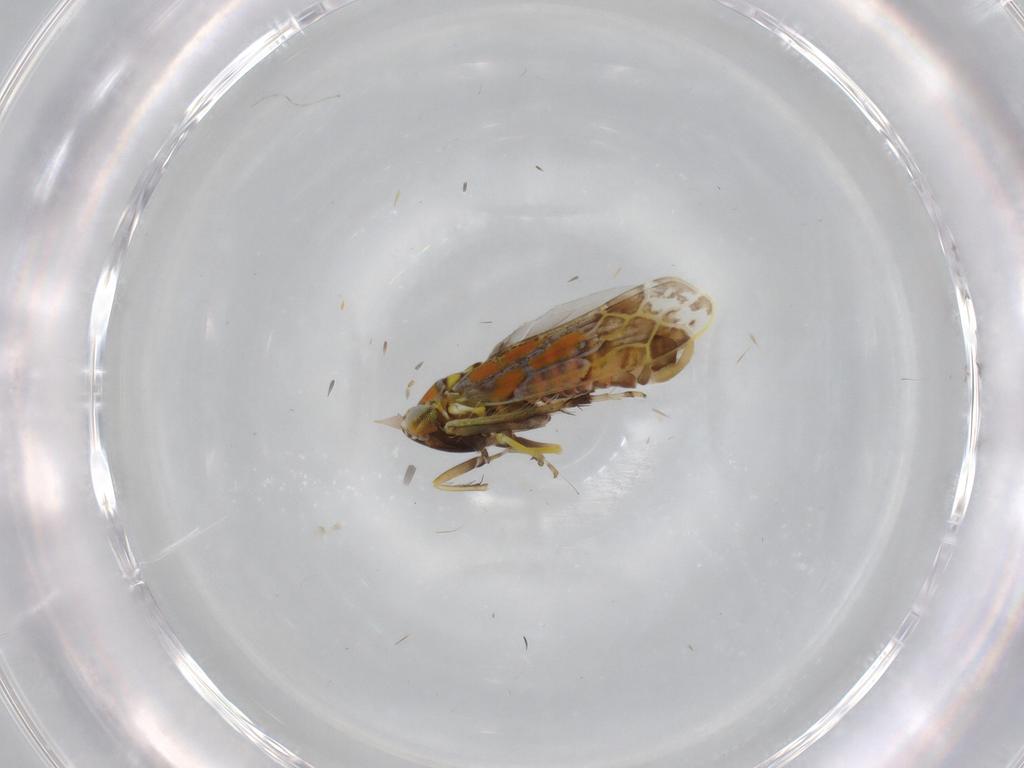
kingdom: Animalia
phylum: Arthropoda
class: Insecta
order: Hemiptera
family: Cicadellidae
